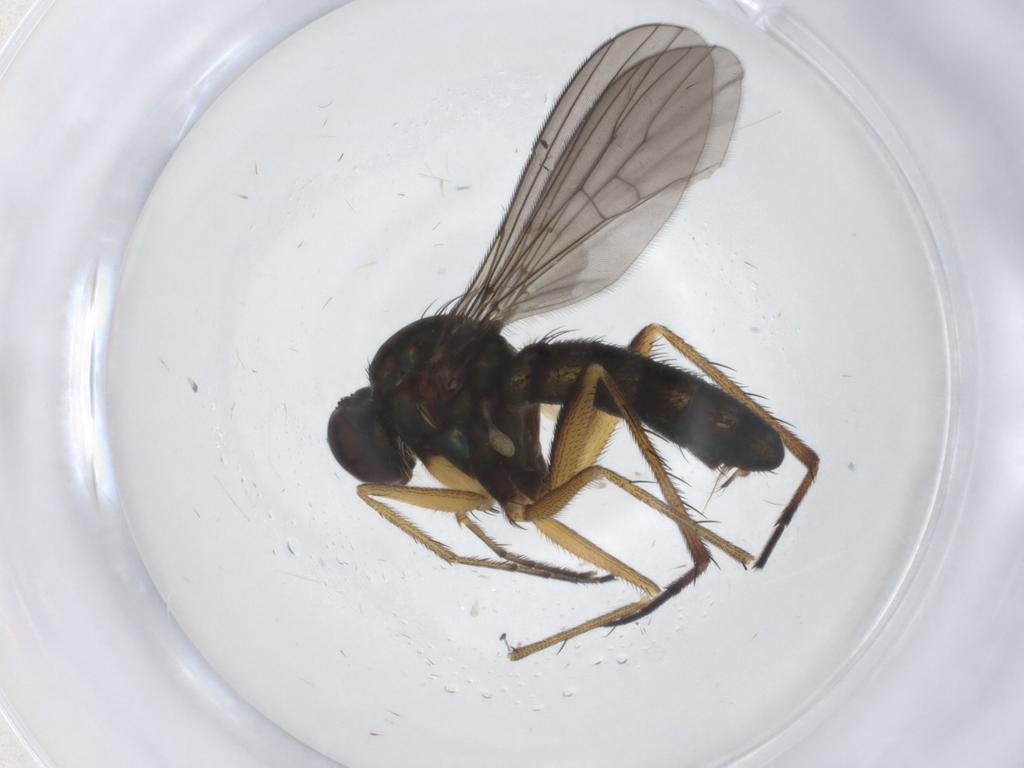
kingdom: Animalia
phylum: Arthropoda
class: Insecta
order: Diptera
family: Dolichopodidae
